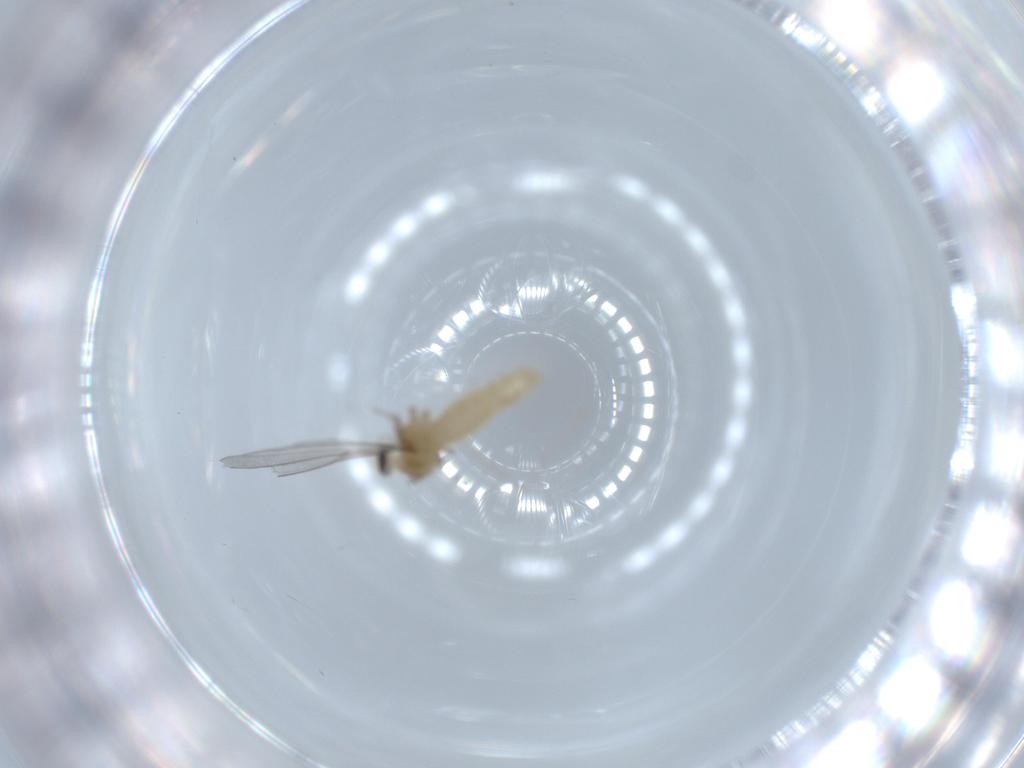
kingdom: Animalia
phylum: Arthropoda
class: Insecta
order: Diptera
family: Cecidomyiidae
